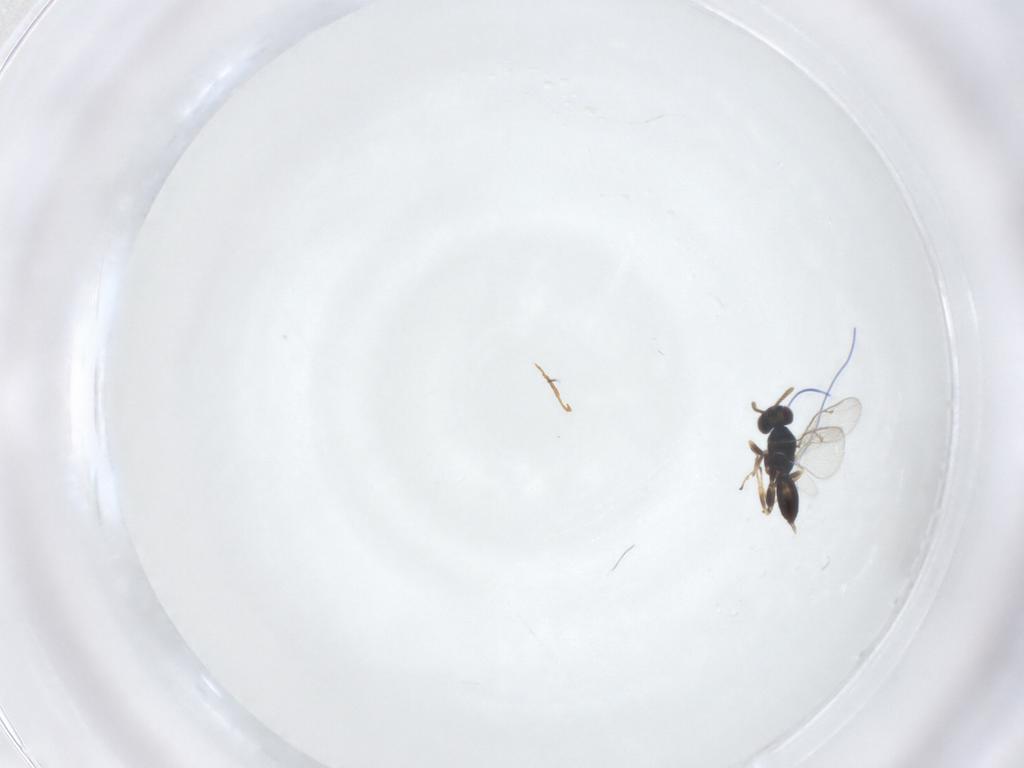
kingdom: Animalia
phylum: Arthropoda
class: Insecta
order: Hymenoptera
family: Pteromalidae
